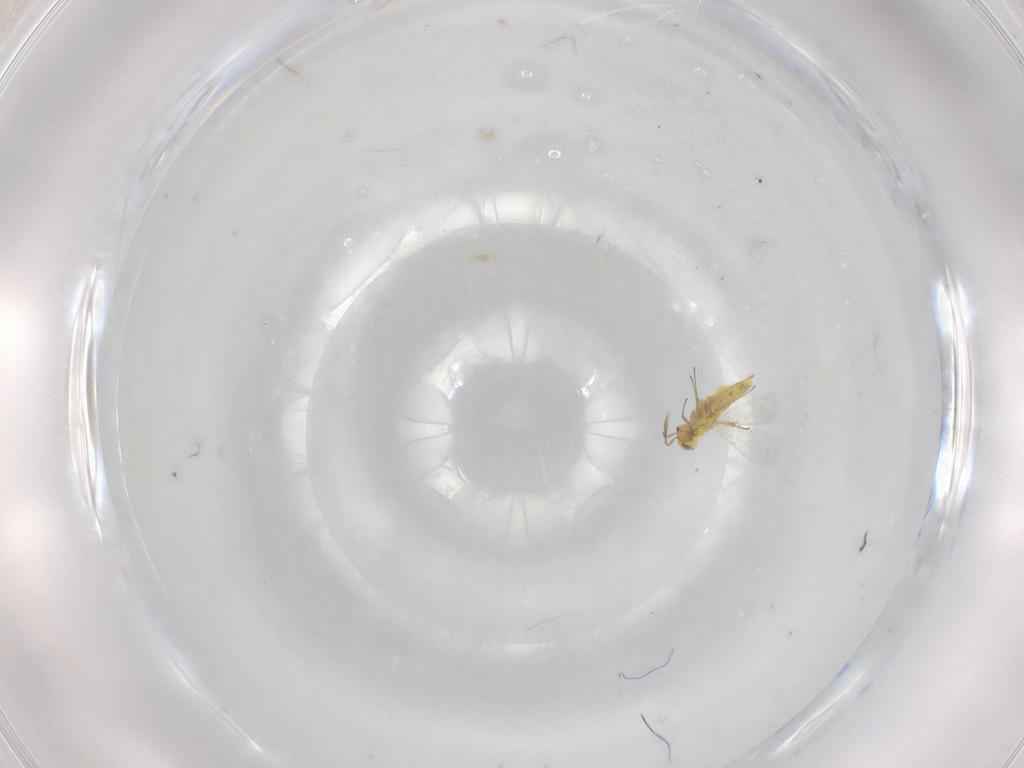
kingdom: Animalia
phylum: Arthropoda
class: Insecta
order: Hymenoptera
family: Aphelinidae
